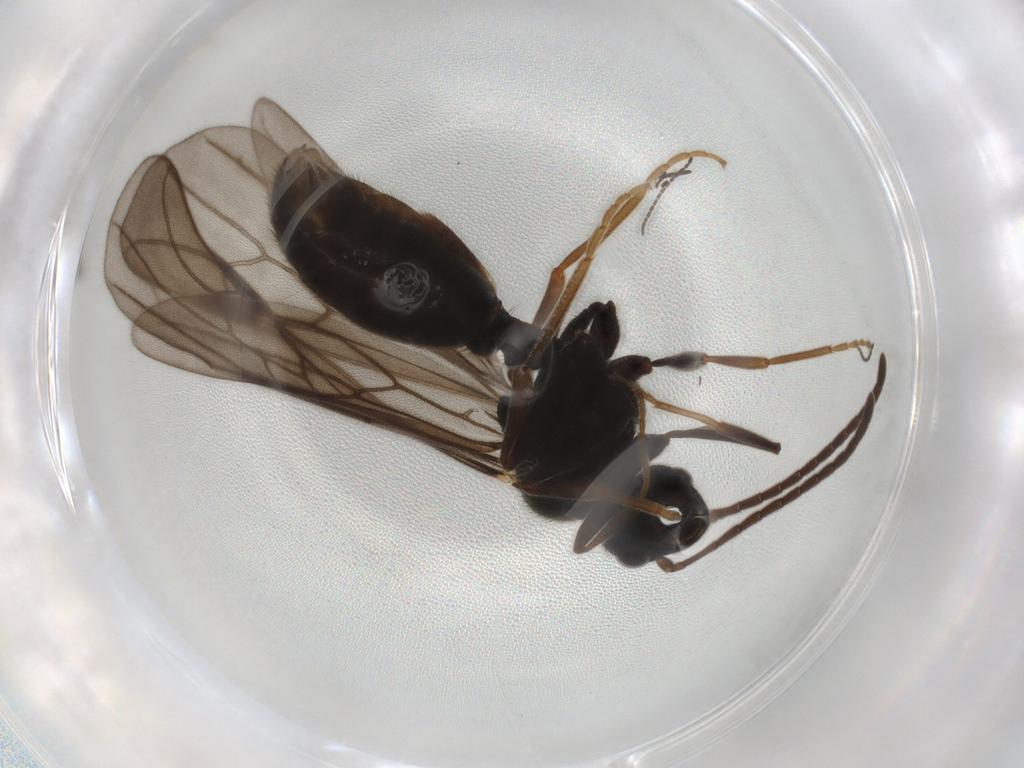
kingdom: Animalia
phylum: Arthropoda
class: Insecta
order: Hymenoptera
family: Formicidae
